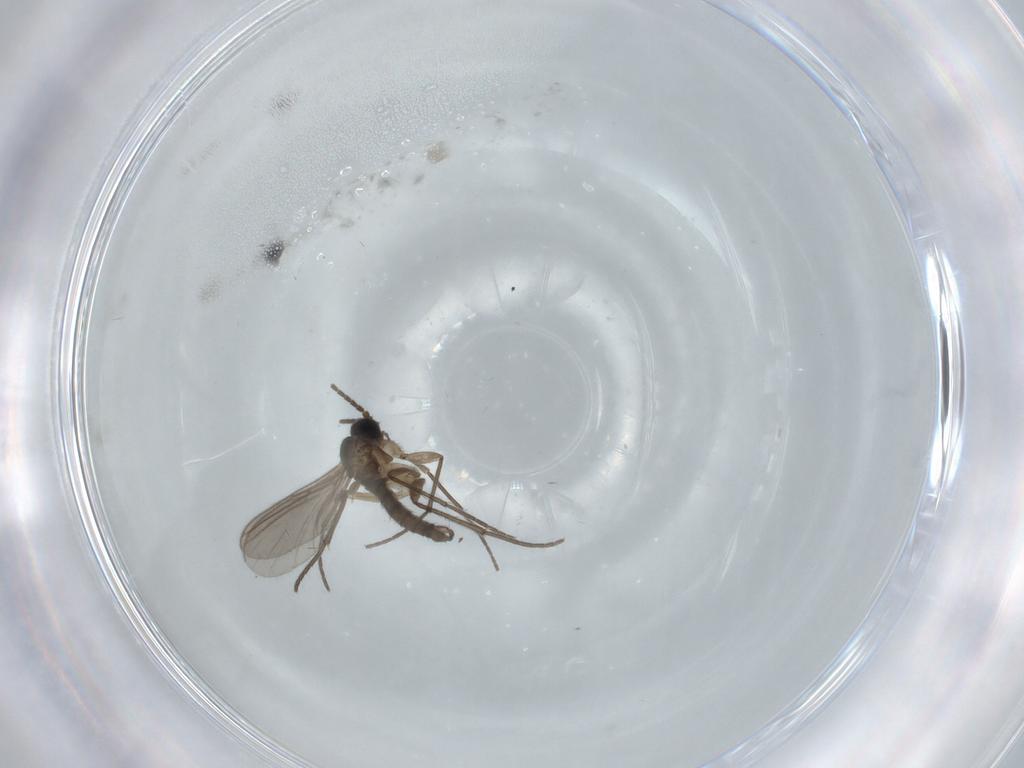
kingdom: Animalia
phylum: Arthropoda
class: Insecta
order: Diptera
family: Sciaridae
